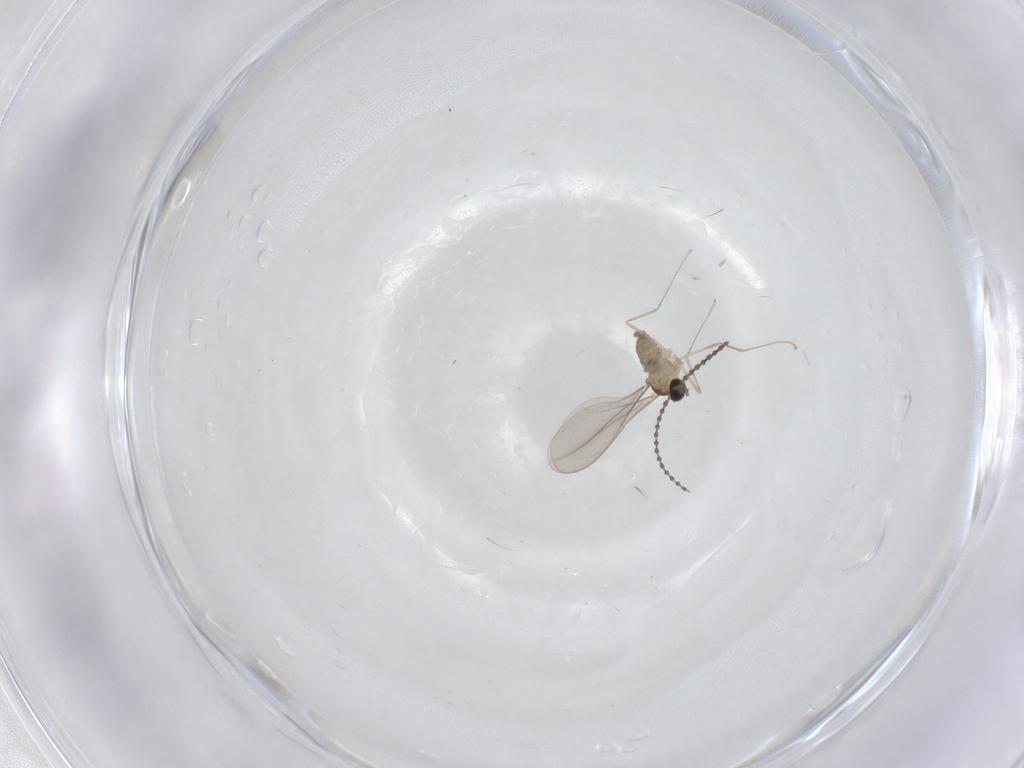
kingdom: Animalia
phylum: Arthropoda
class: Insecta
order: Diptera
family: Cecidomyiidae
